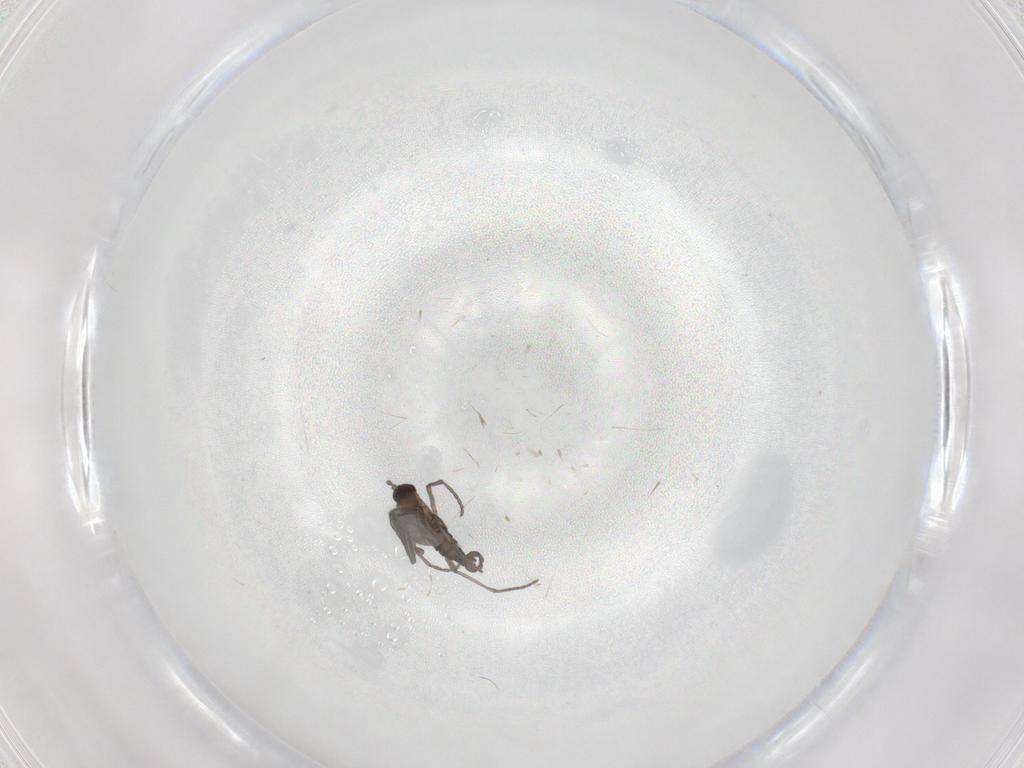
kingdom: Animalia
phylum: Arthropoda
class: Insecta
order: Diptera
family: Sciaridae
